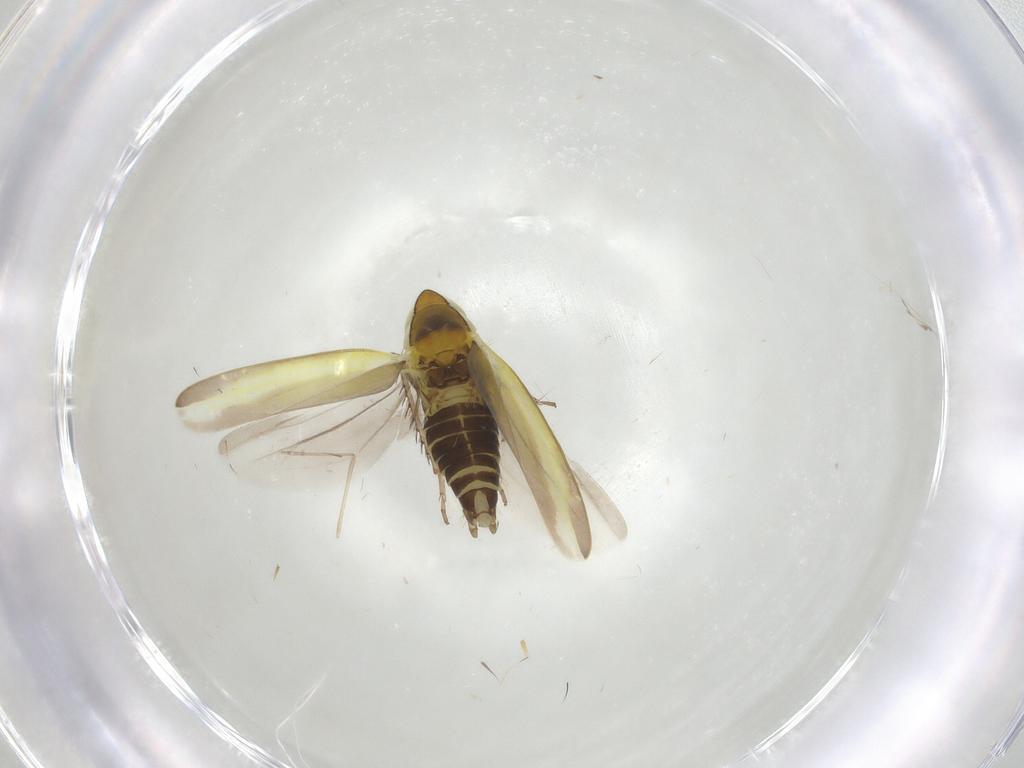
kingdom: Animalia
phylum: Arthropoda
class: Insecta
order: Hemiptera
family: Cicadellidae
